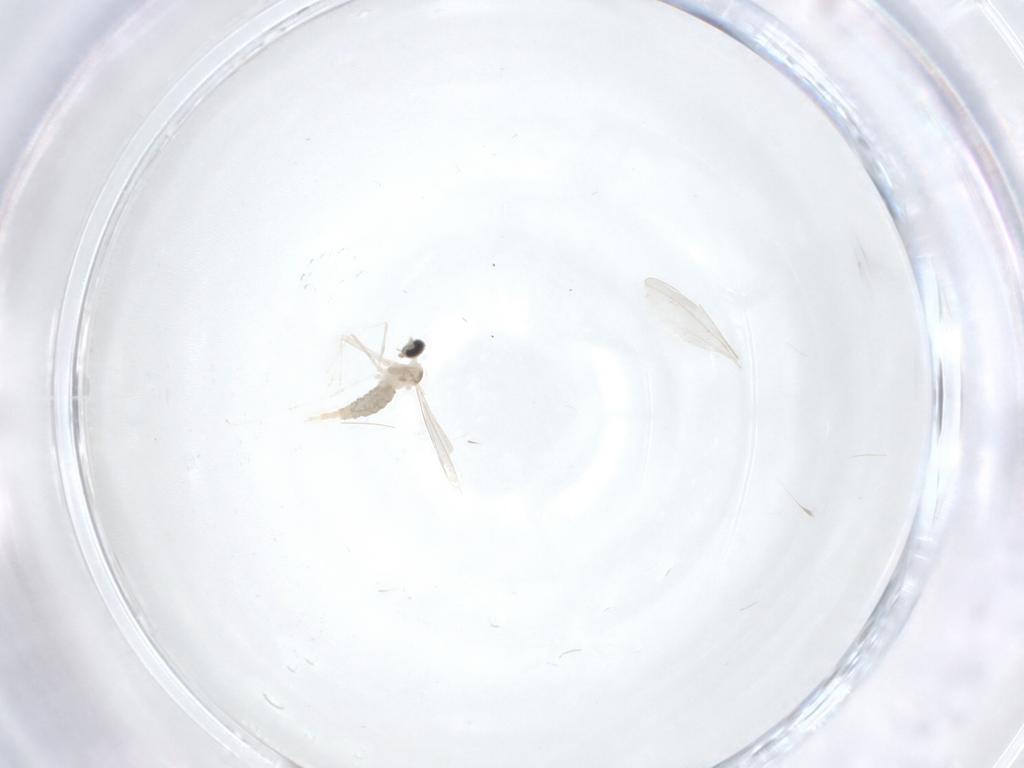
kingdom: Animalia
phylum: Arthropoda
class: Insecta
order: Diptera
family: Cecidomyiidae
